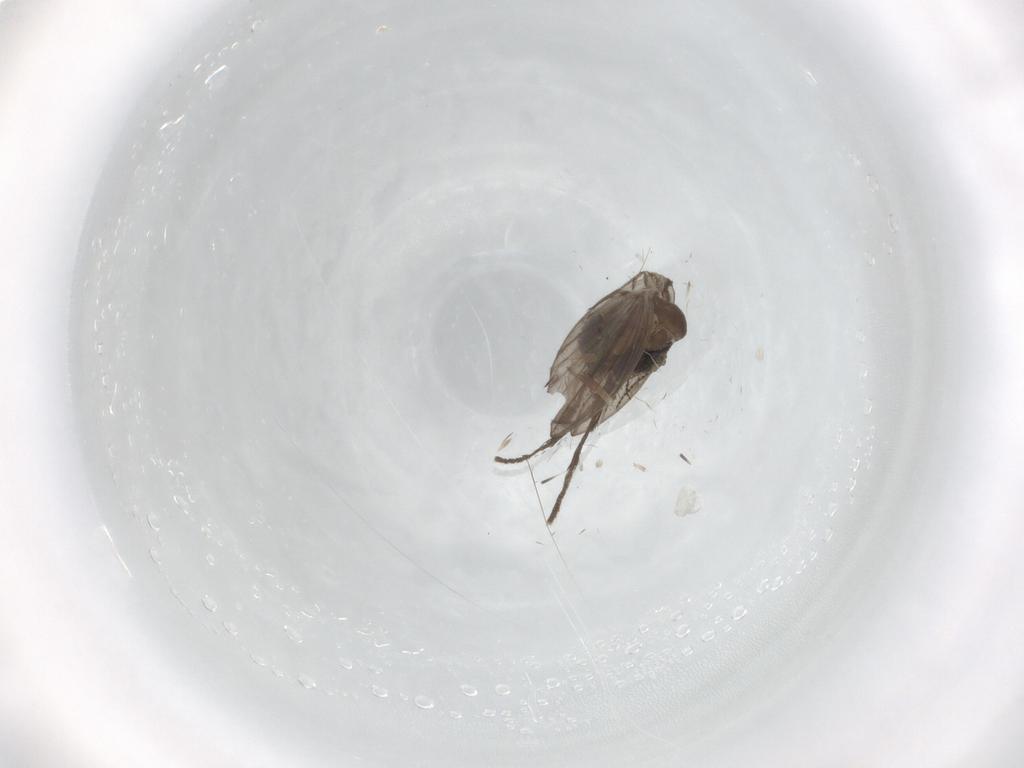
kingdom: Animalia
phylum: Arthropoda
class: Insecta
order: Diptera
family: Psychodidae
